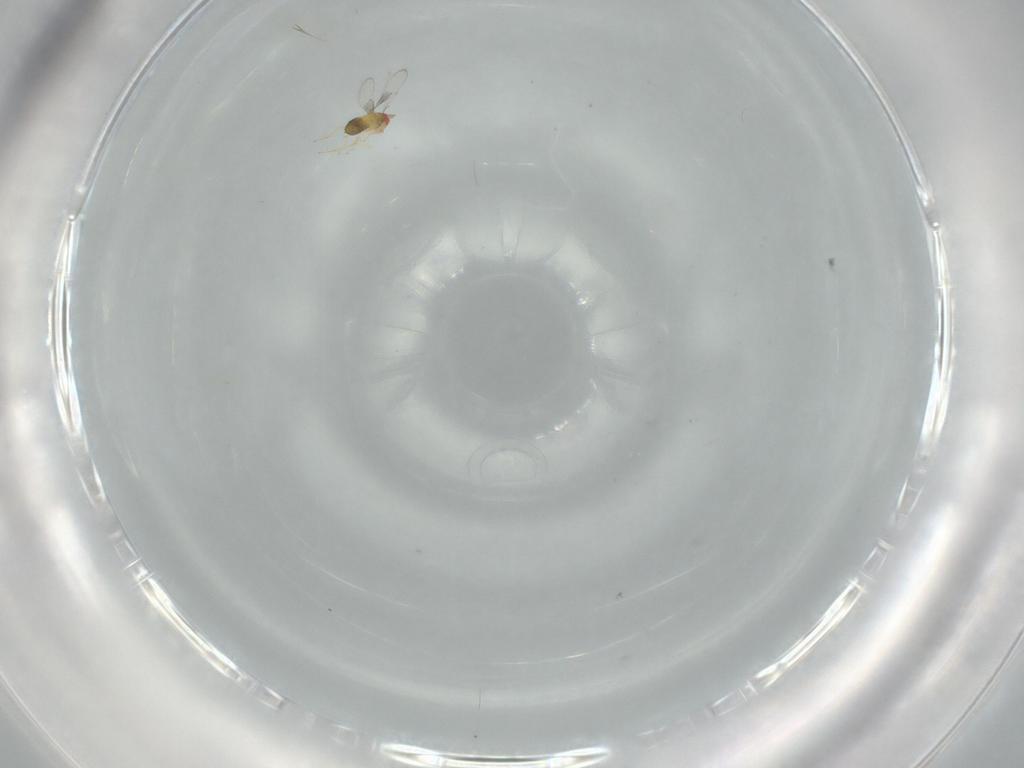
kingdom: Animalia
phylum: Arthropoda
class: Insecta
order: Hymenoptera
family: Trichogrammatidae
